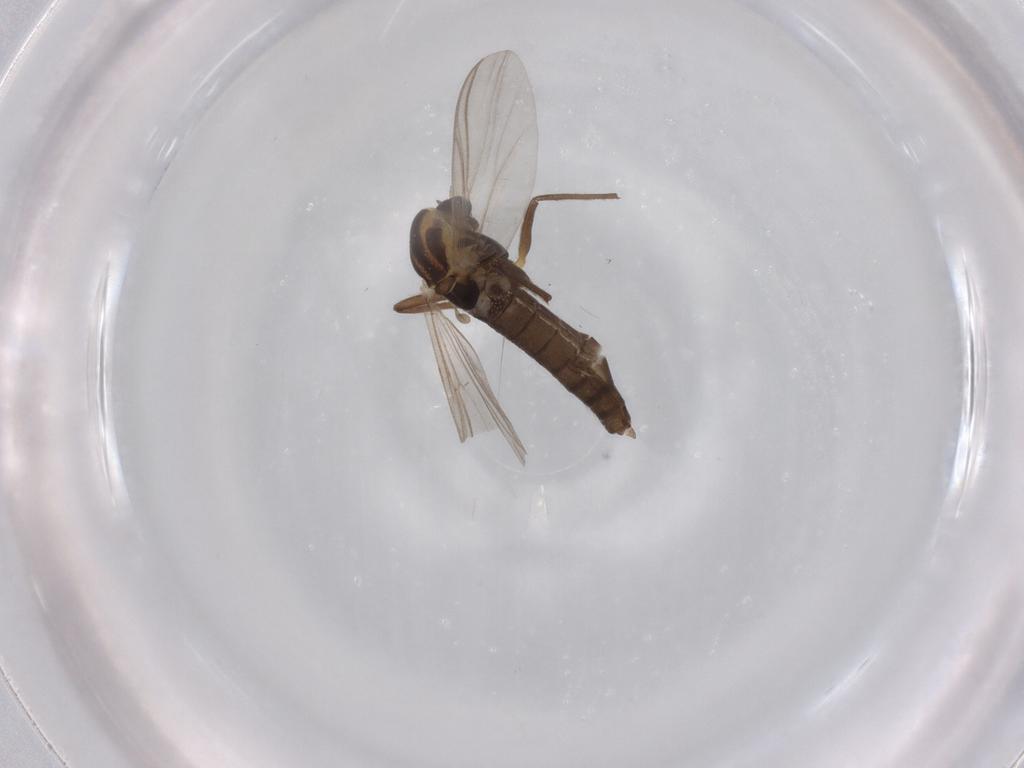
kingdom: Animalia
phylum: Arthropoda
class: Insecta
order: Diptera
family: Chironomidae
